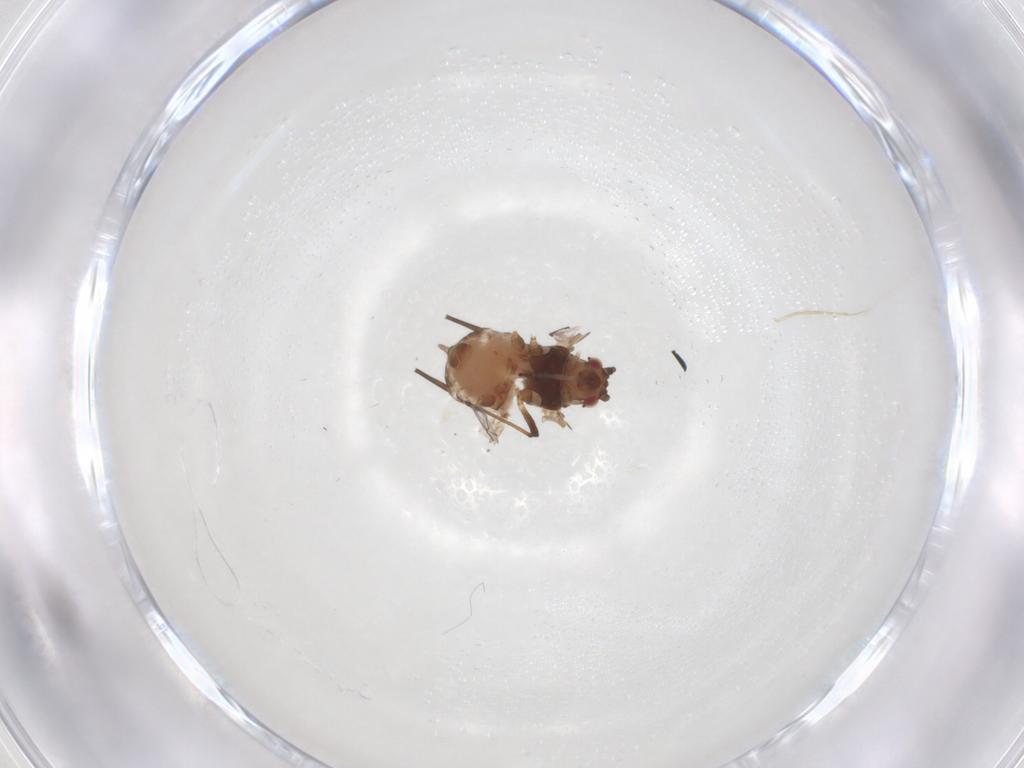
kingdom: Animalia
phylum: Arthropoda
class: Insecta
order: Hemiptera
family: Aphididae
